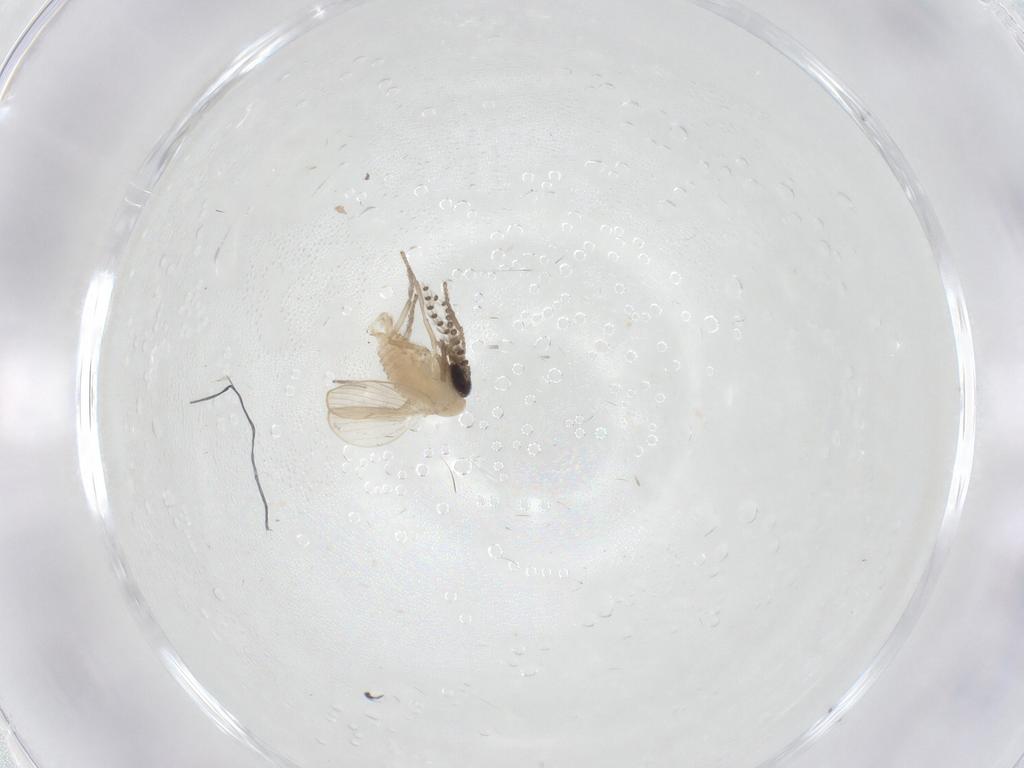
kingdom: Animalia
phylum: Arthropoda
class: Insecta
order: Diptera
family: Psychodidae
